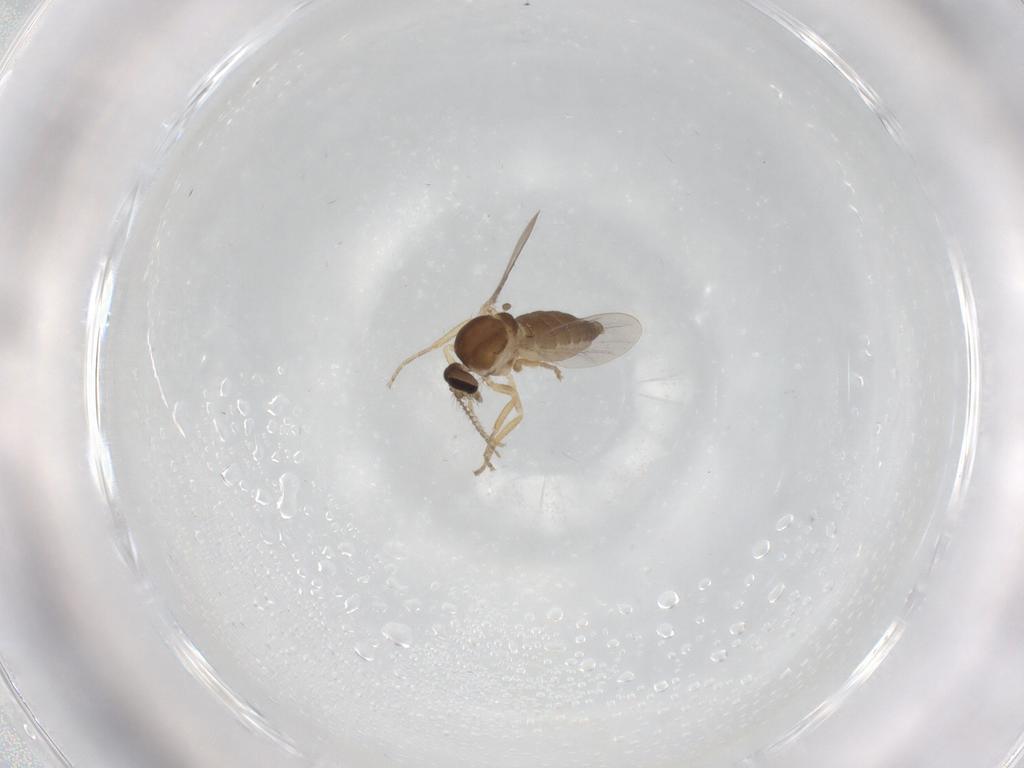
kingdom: Animalia
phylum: Arthropoda
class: Insecta
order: Diptera
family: Ceratopogonidae
